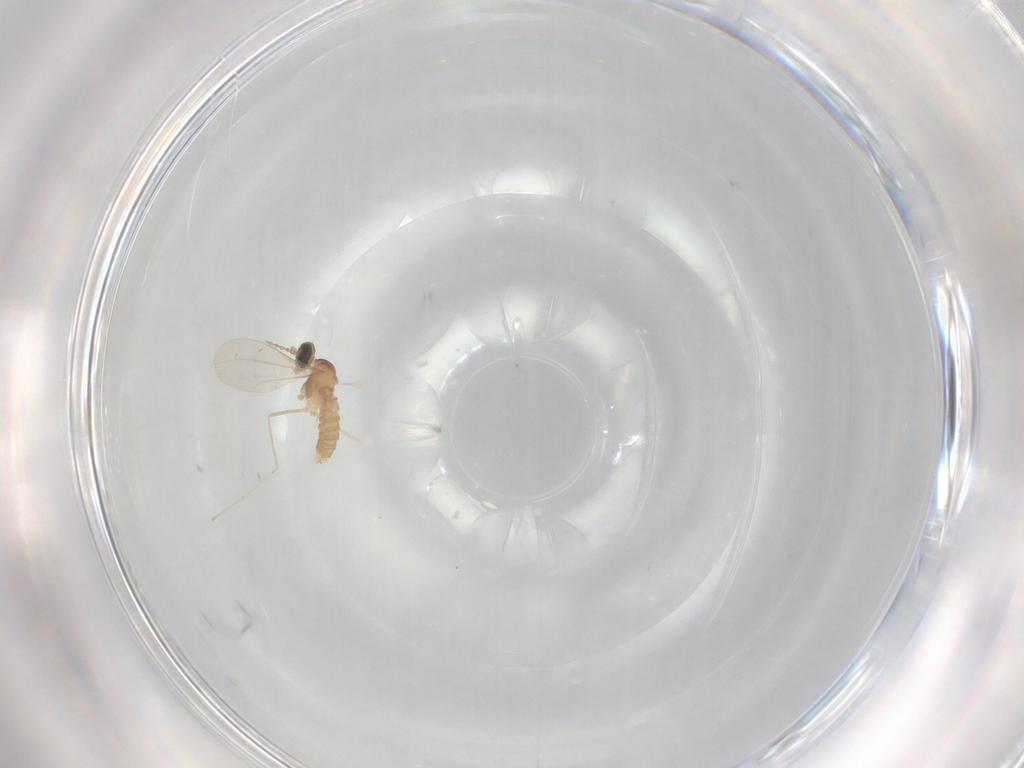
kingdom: Animalia
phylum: Arthropoda
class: Insecta
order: Diptera
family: Cecidomyiidae
